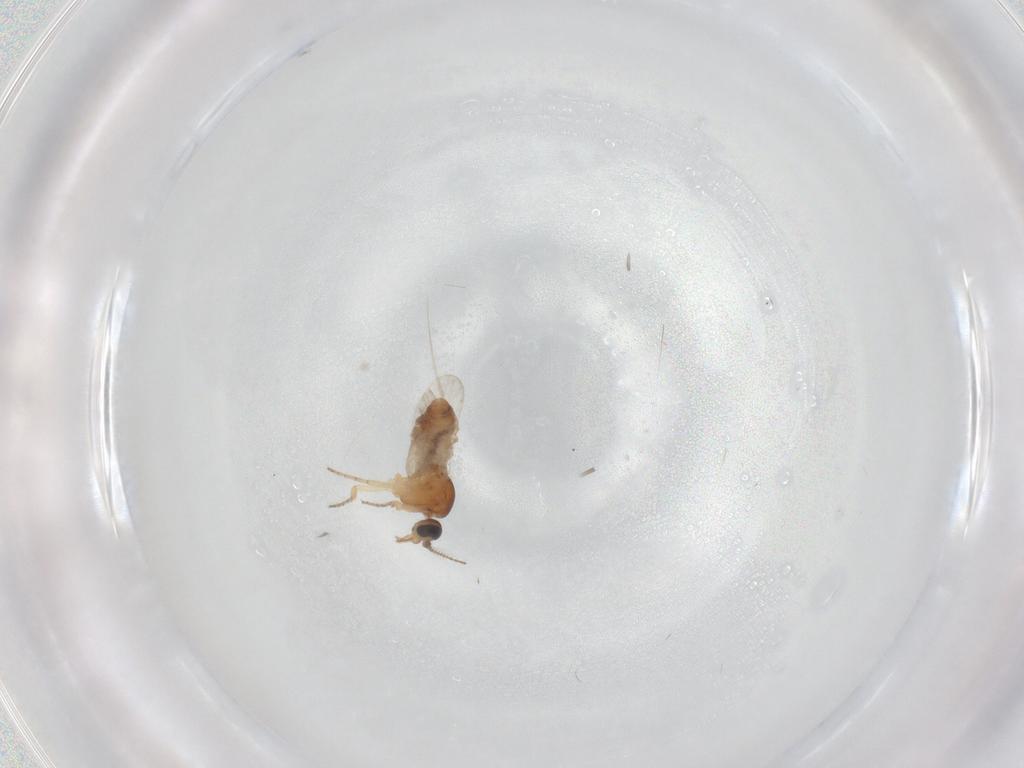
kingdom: Animalia
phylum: Arthropoda
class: Insecta
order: Diptera
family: Ceratopogonidae
